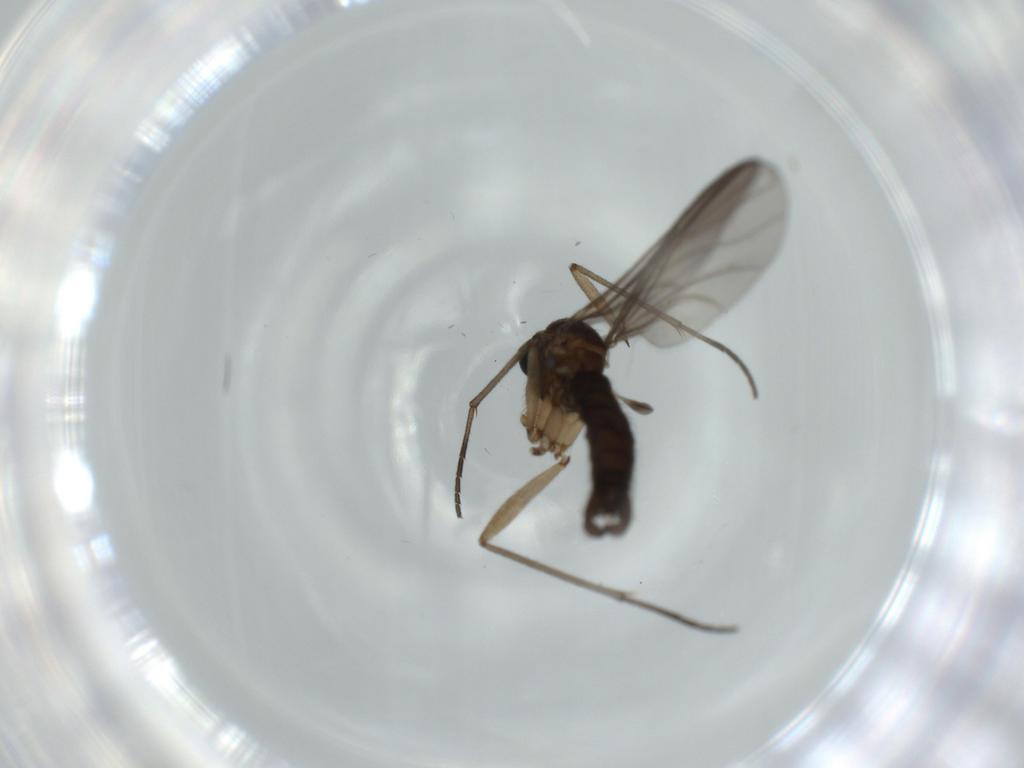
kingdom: Animalia
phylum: Arthropoda
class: Insecta
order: Diptera
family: Sciaridae
